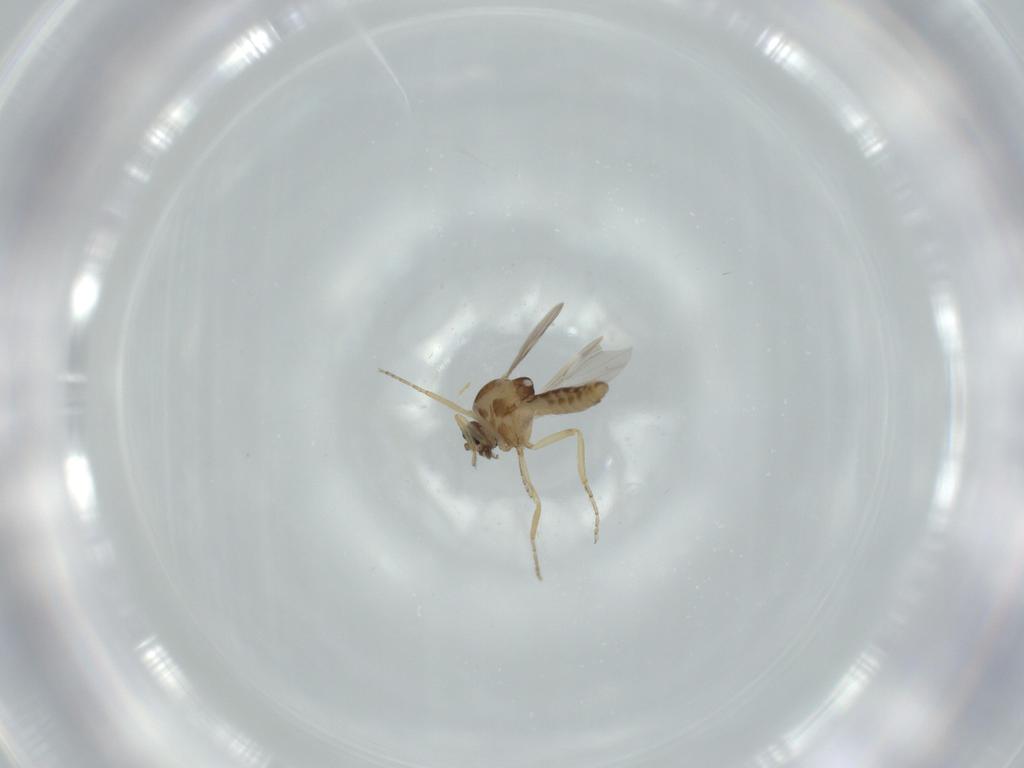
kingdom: Animalia
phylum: Arthropoda
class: Insecta
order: Diptera
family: Ceratopogonidae
